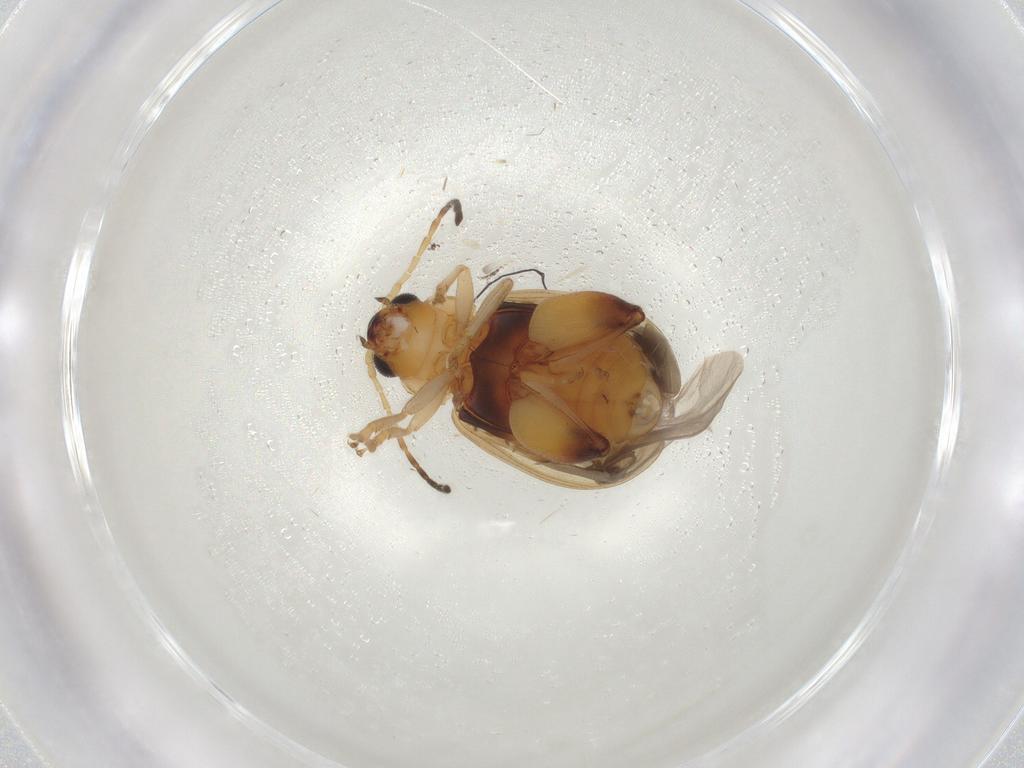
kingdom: Animalia
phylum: Arthropoda
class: Insecta
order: Coleoptera
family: Chrysomelidae
